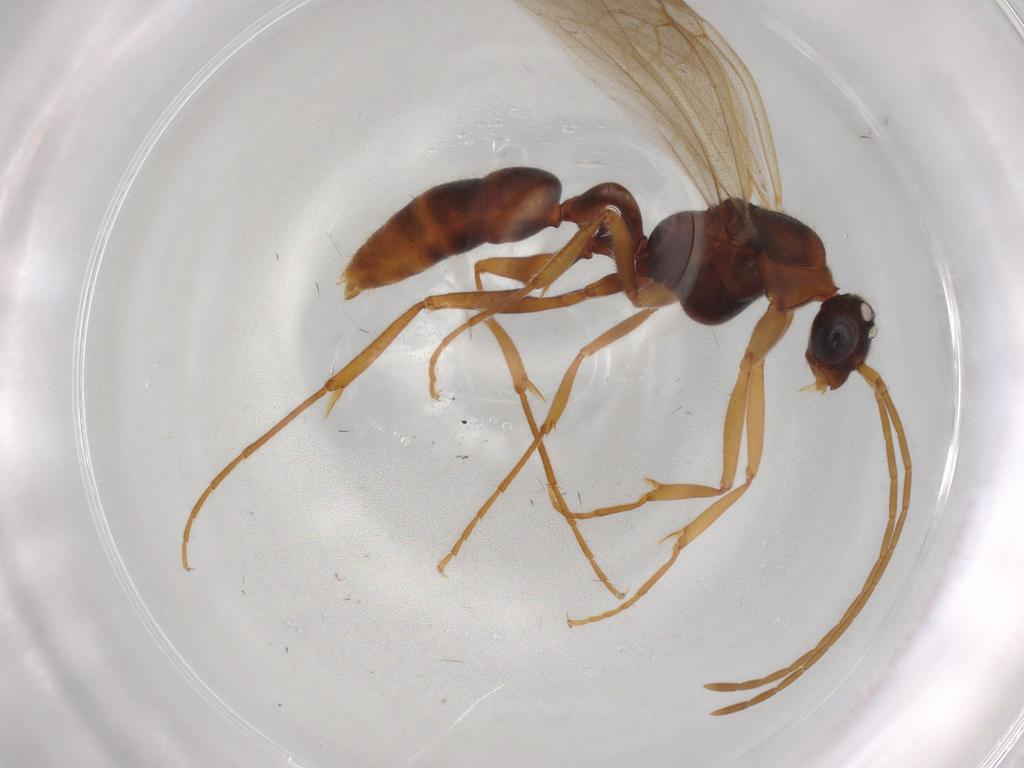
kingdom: Animalia
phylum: Arthropoda
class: Insecta
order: Hymenoptera
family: Formicidae
